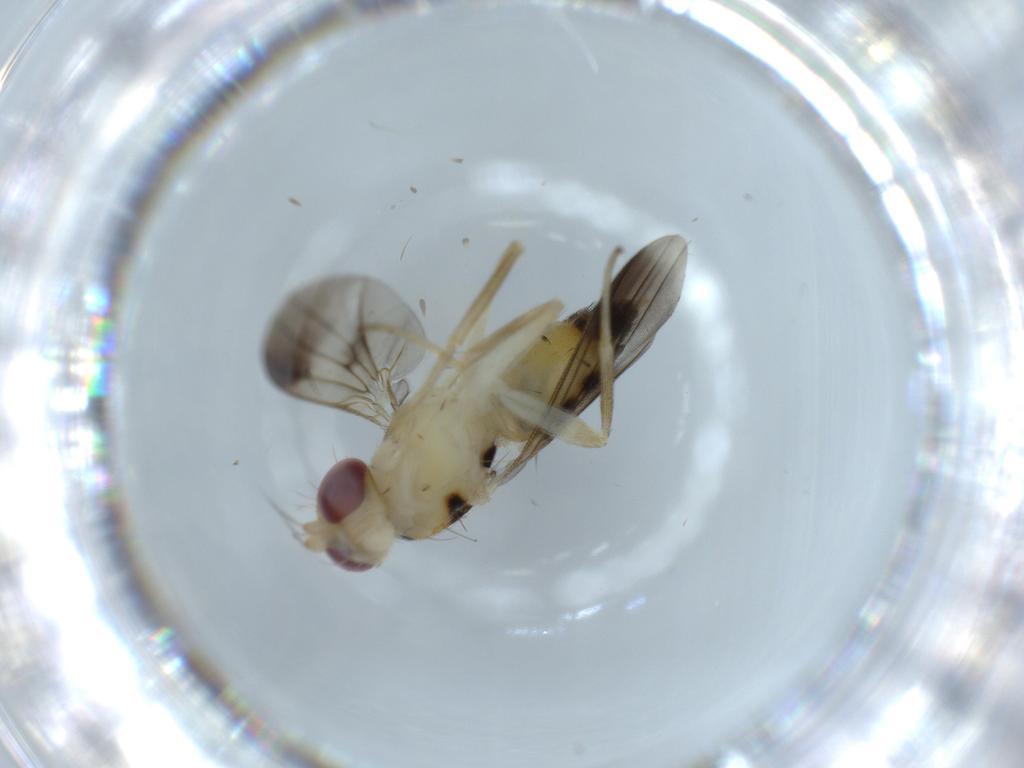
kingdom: Animalia
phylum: Arthropoda
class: Insecta
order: Diptera
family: Clusiidae
